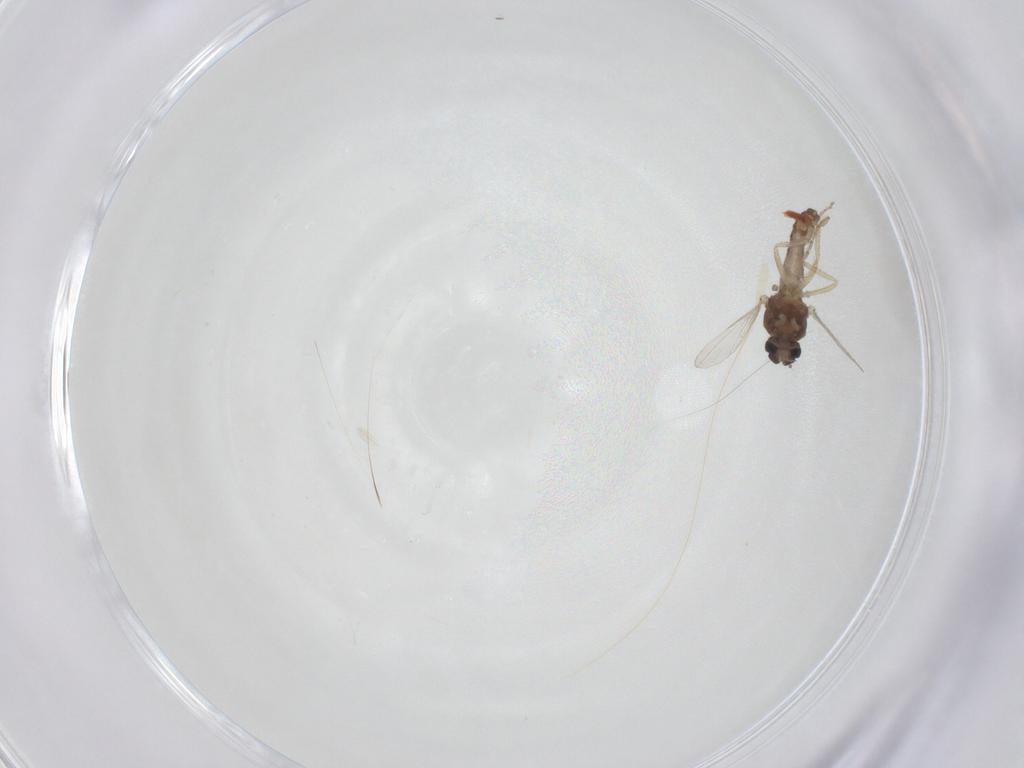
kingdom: Animalia
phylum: Arthropoda
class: Insecta
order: Diptera
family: Ceratopogonidae
